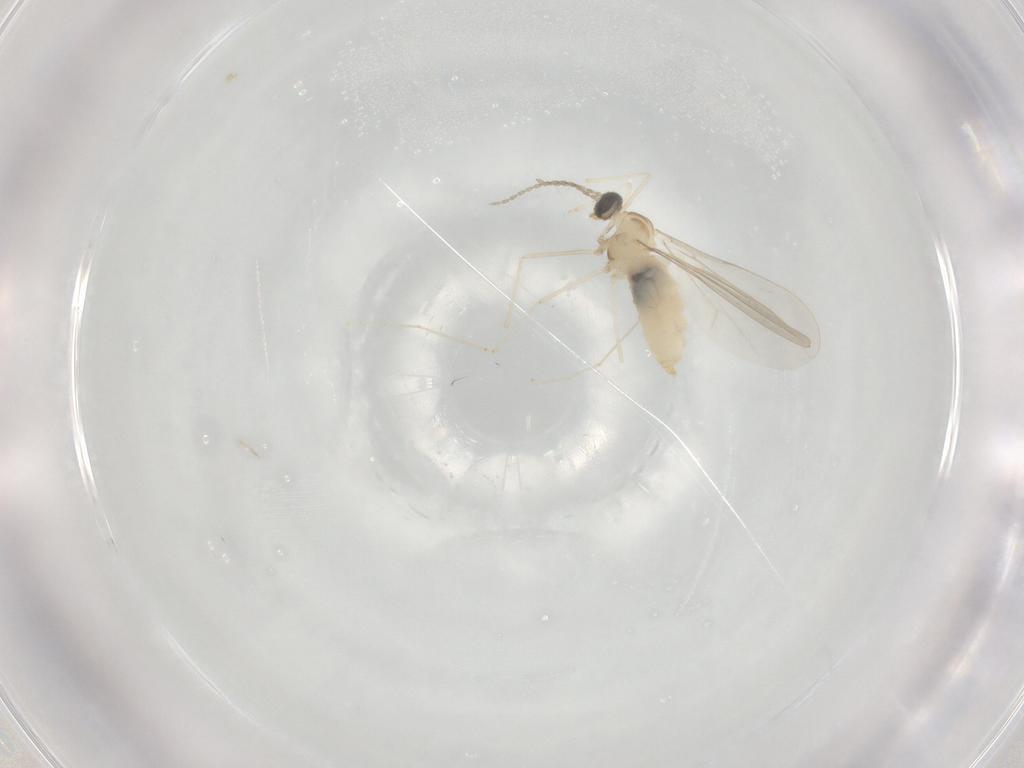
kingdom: Animalia
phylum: Arthropoda
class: Insecta
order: Diptera
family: Cecidomyiidae
